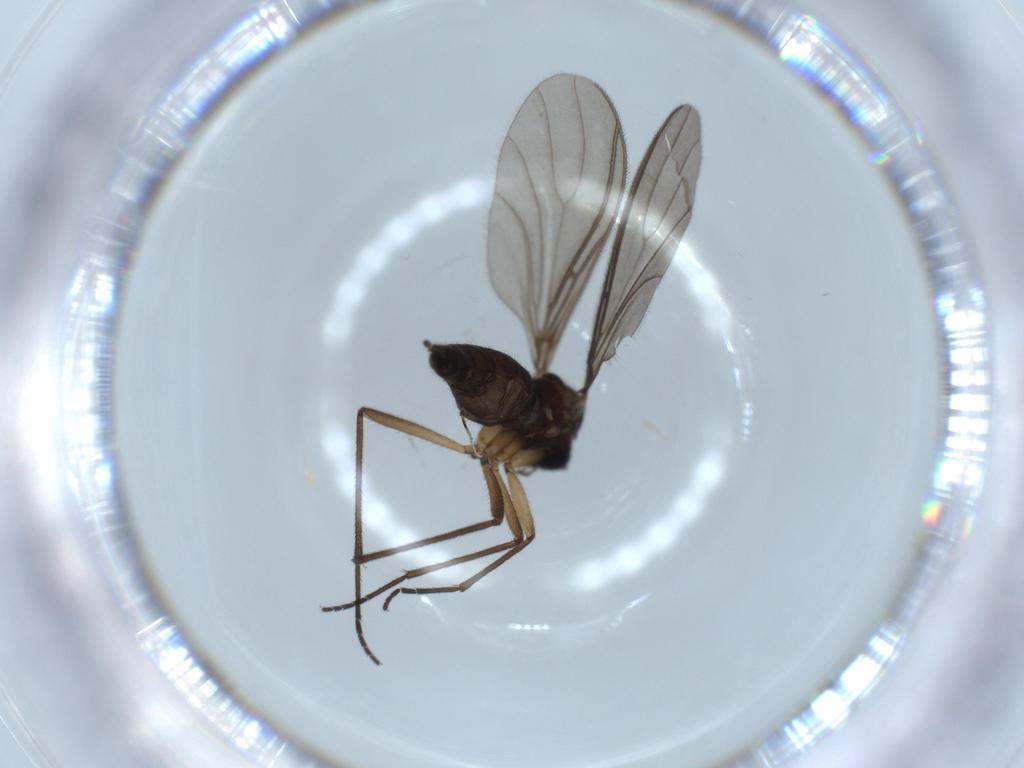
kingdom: Animalia
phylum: Arthropoda
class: Insecta
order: Diptera
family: Sciaridae
